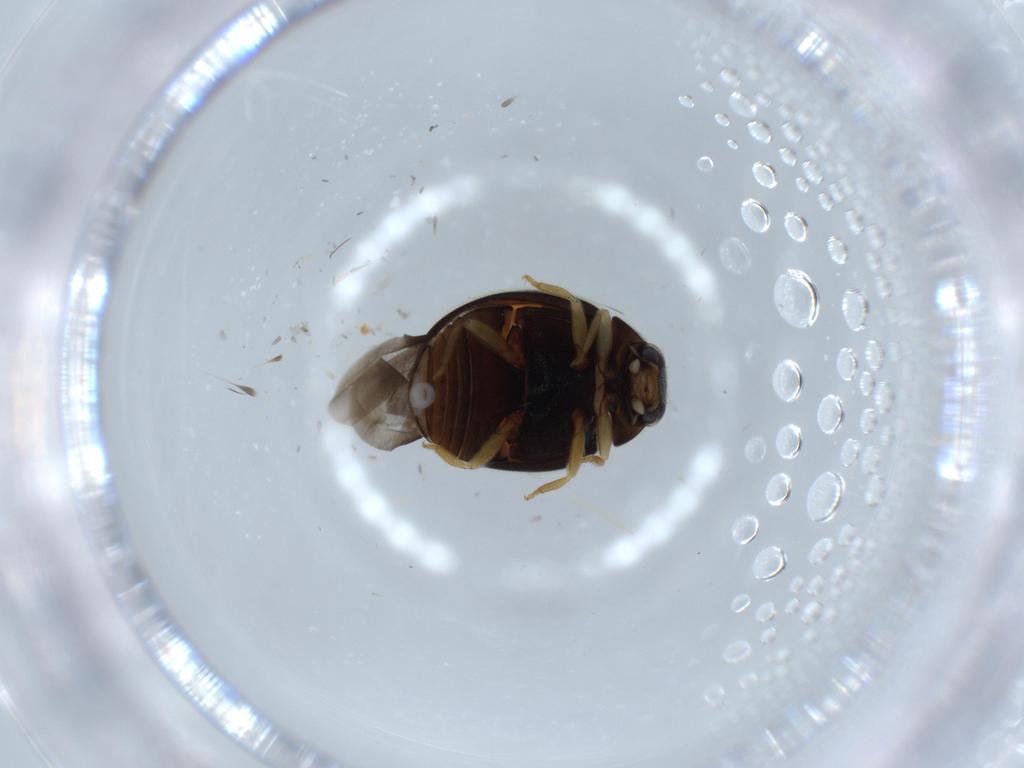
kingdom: Animalia
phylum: Arthropoda
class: Insecta
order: Coleoptera
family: Coccinellidae
